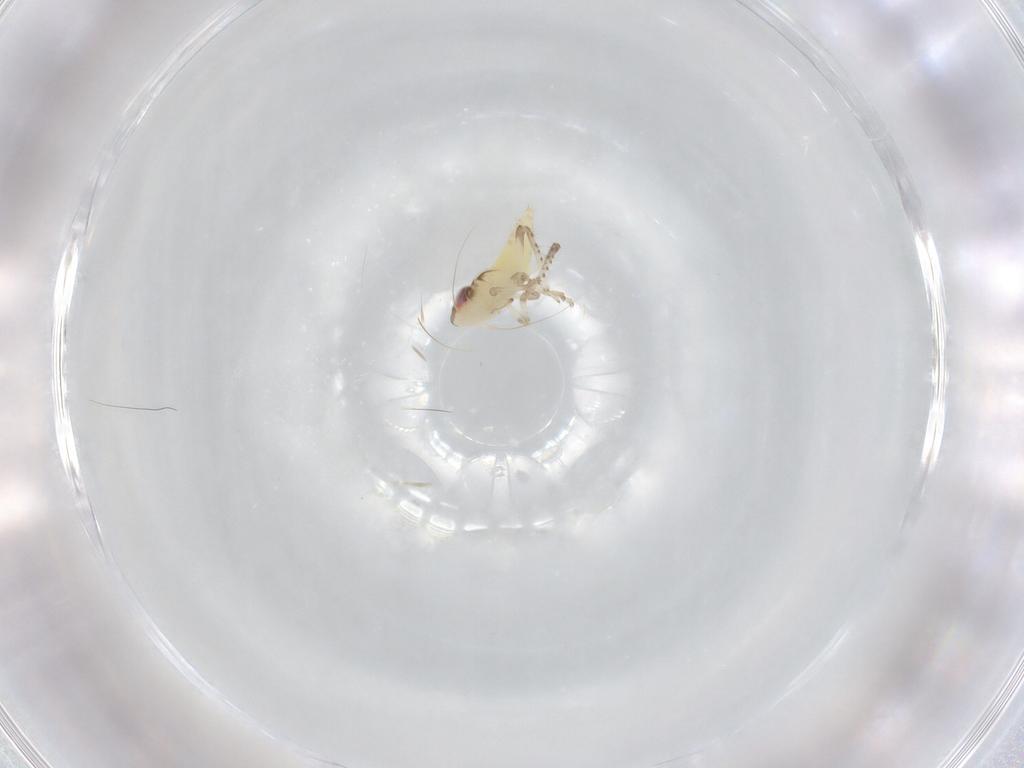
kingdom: Animalia
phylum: Arthropoda
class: Insecta
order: Hemiptera
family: Cicadellidae
